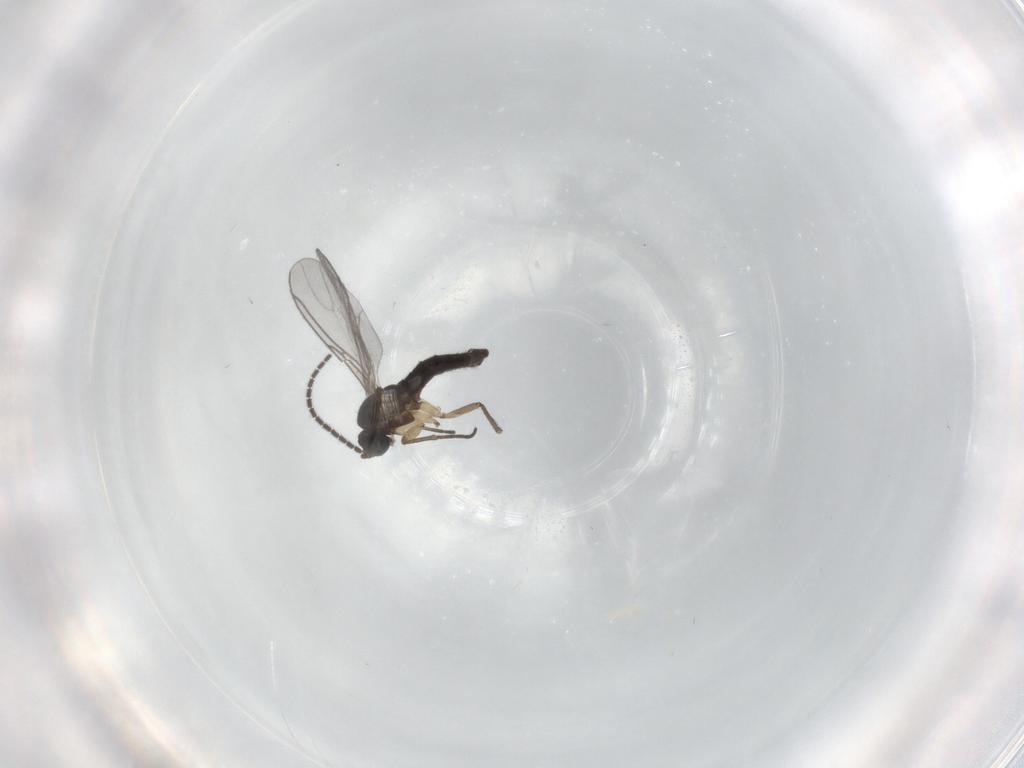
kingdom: Animalia
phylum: Arthropoda
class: Insecta
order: Diptera
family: Sciaridae
